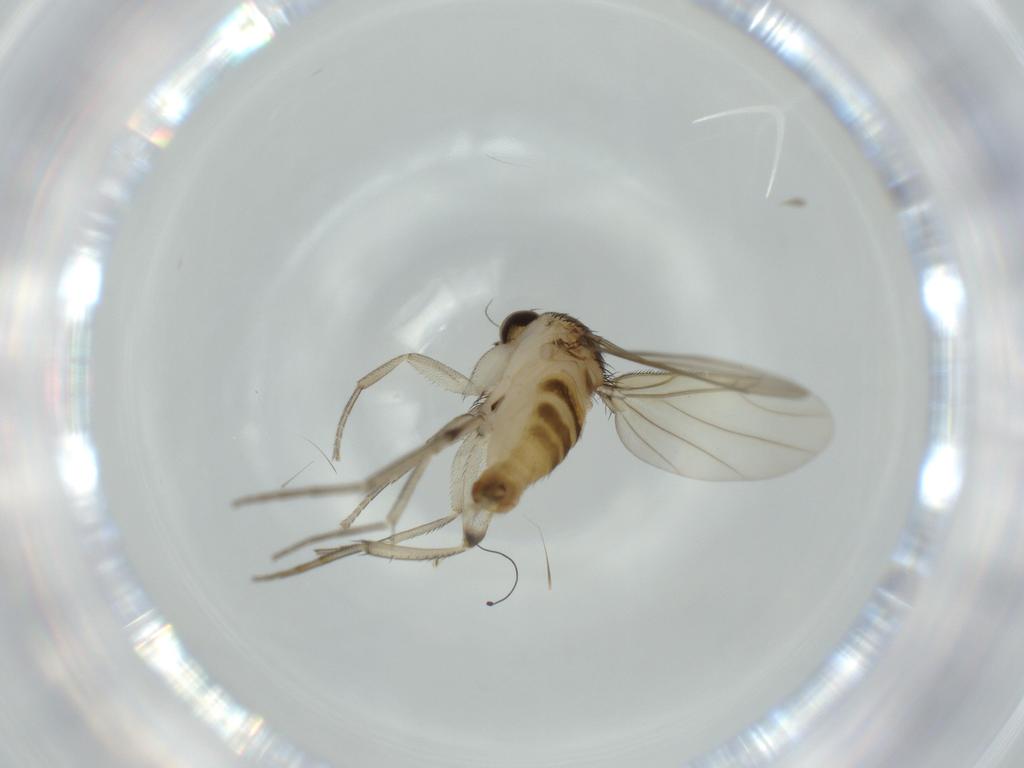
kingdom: Animalia
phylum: Arthropoda
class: Insecta
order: Diptera
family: Phoridae
